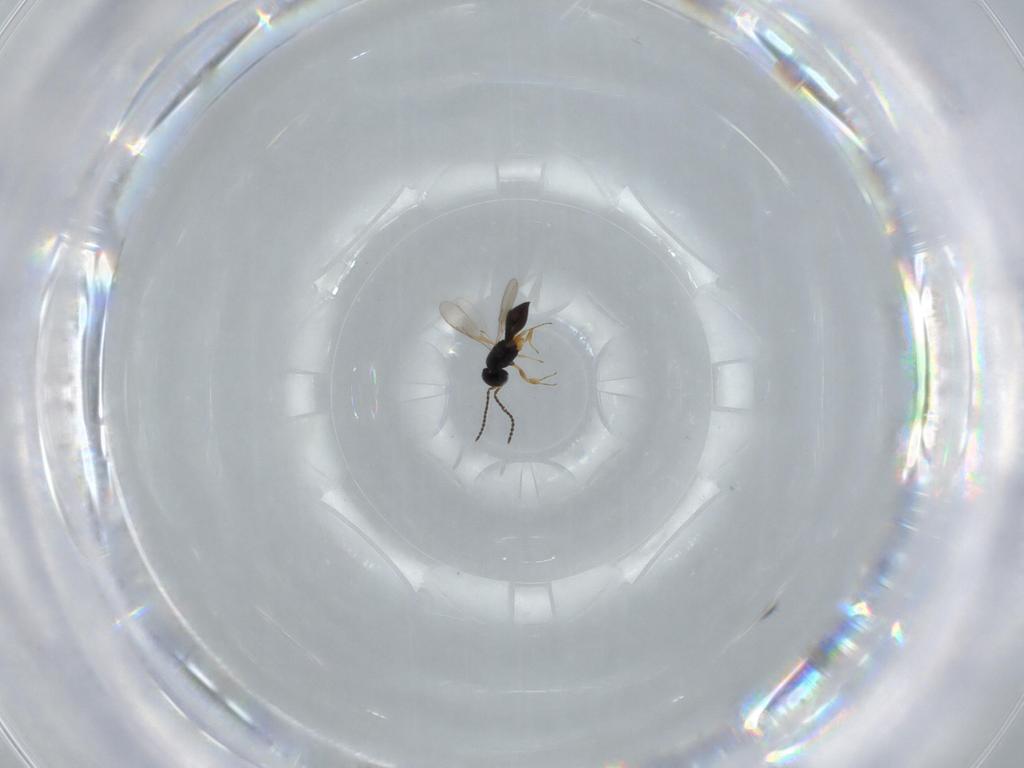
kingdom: Animalia
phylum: Arthropoda
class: Insecta
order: Hymenoptera
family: Scelionidae
